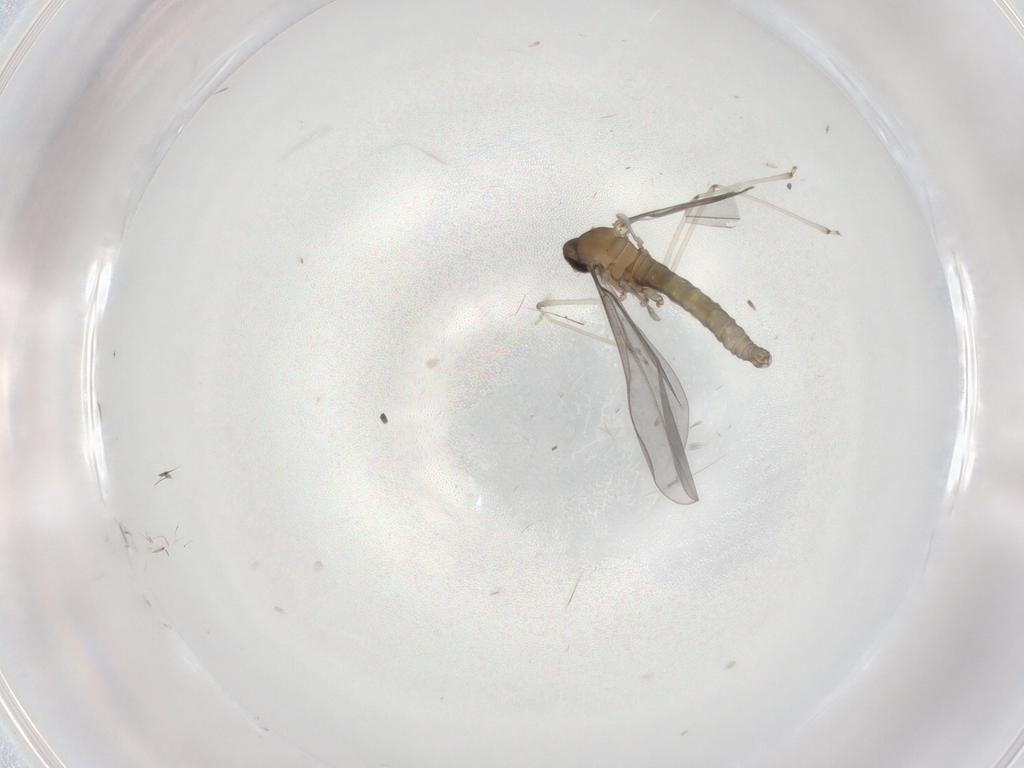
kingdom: Animalia
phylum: Arthropoda
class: Insecta
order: Diptera
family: Cecidomyiidae
